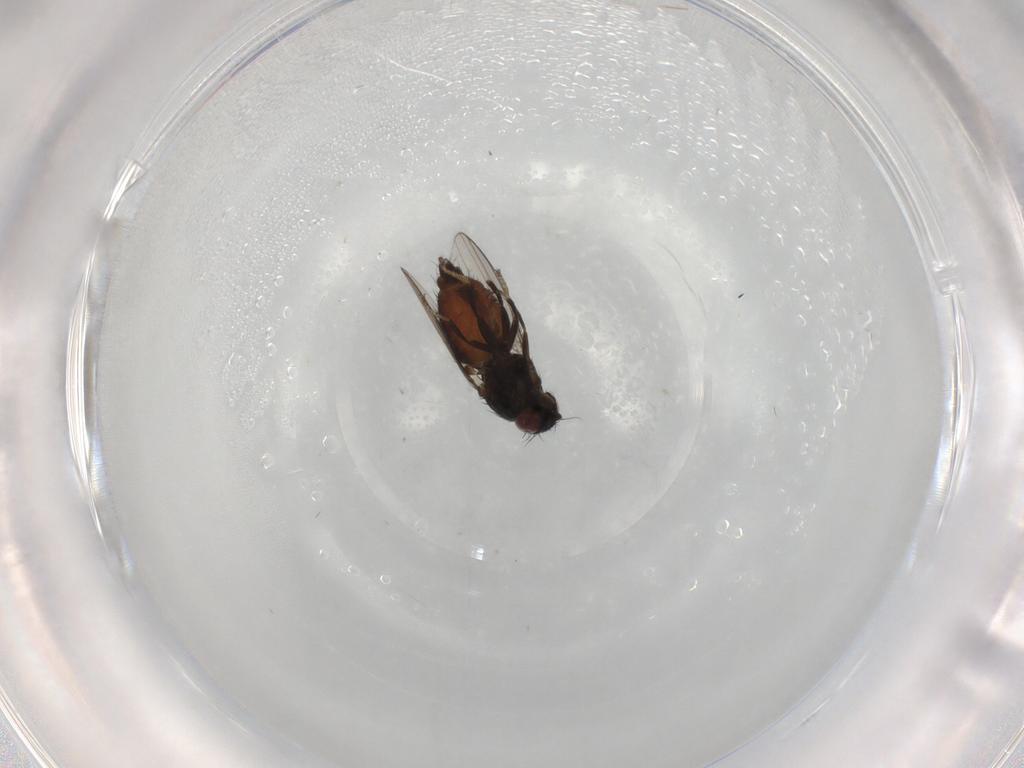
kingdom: Animalia
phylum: Arthropoda
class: Insecta
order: Diptera
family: Milichiidae
